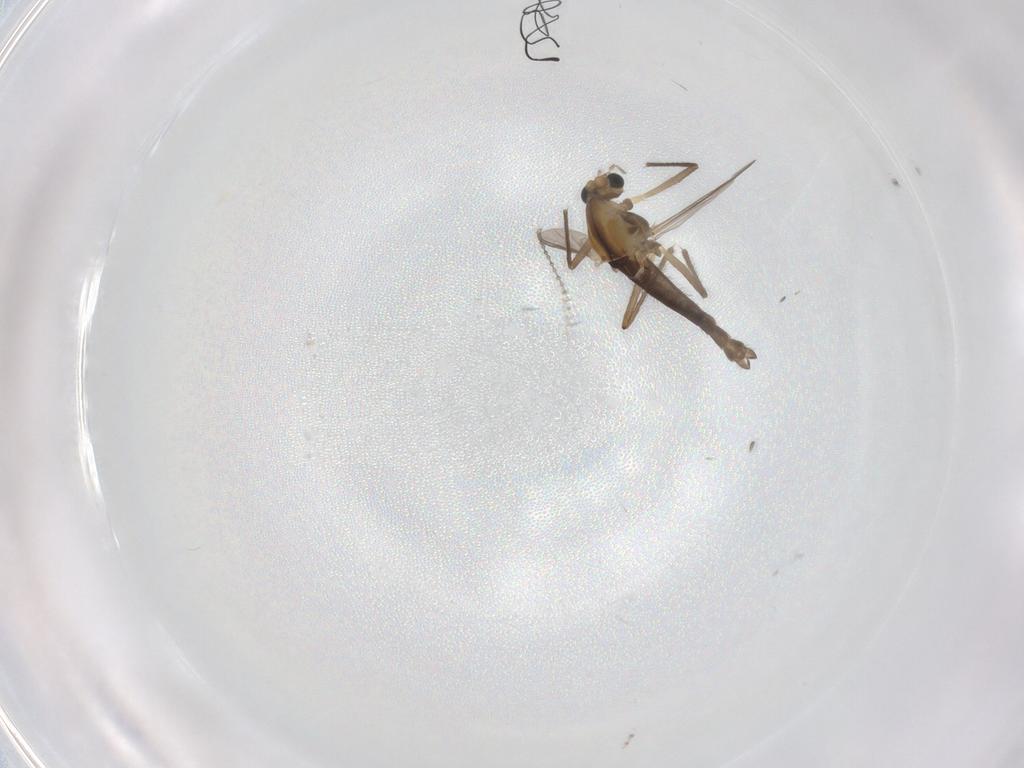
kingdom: Animalia
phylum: Arthropoda
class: Insecta
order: Diptera
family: Chironomidae
